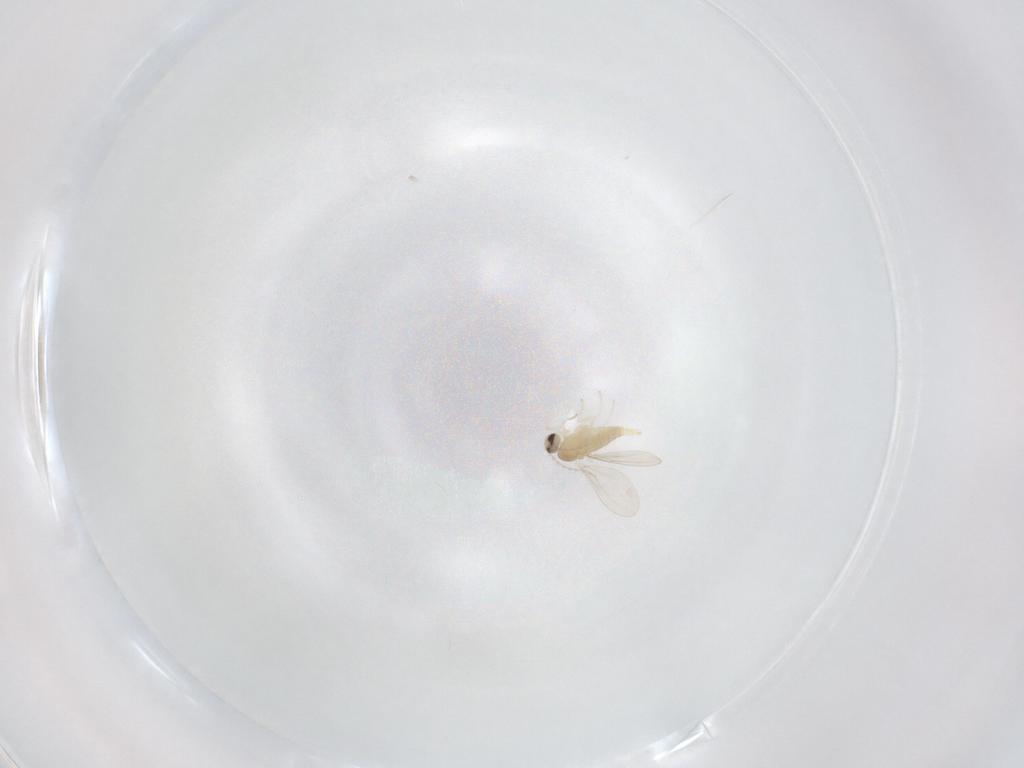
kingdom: Animalia
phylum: Arthropoda
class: Insecta
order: Diptera
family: Cecidomyiidae
